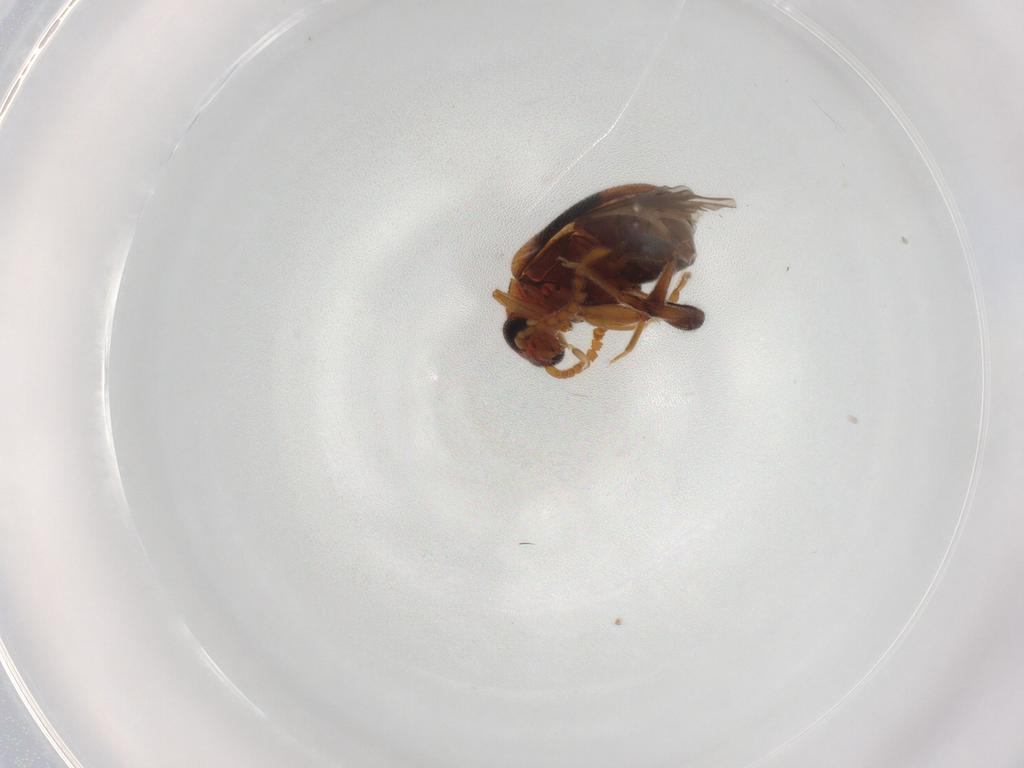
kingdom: Animalia
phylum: Arthropoda
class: Insecta
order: Coleoptera
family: Aderidae
